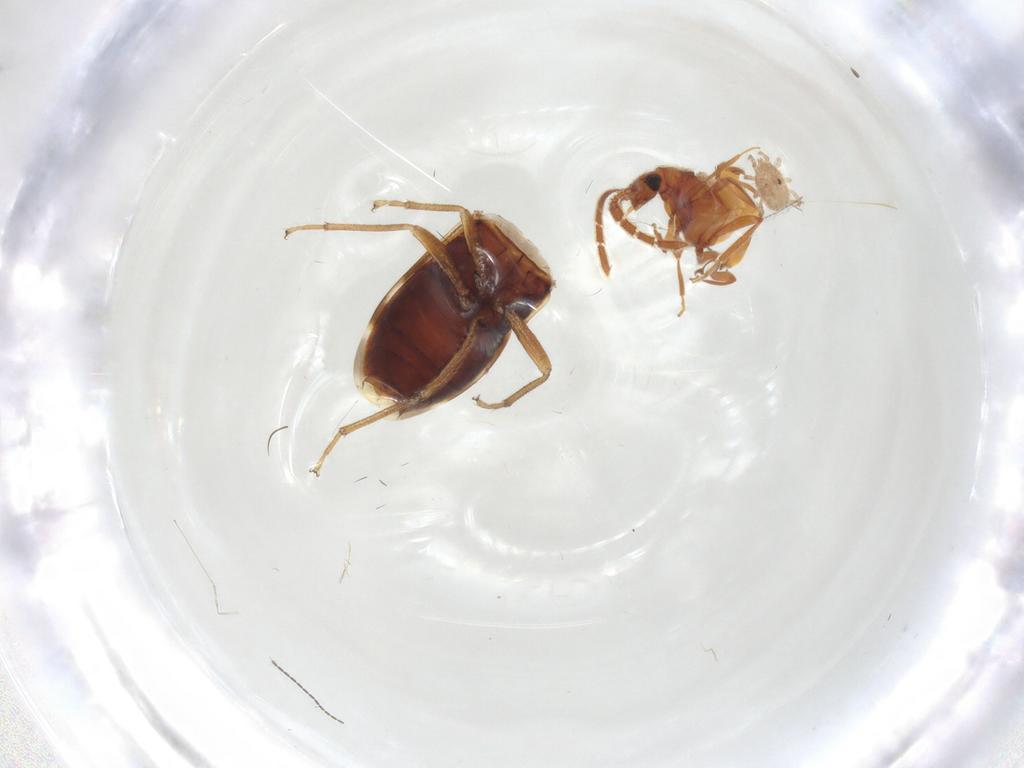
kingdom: Animalia
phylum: Arthropoda
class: Insecta
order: Hemiptera
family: Rhyparochromidae
